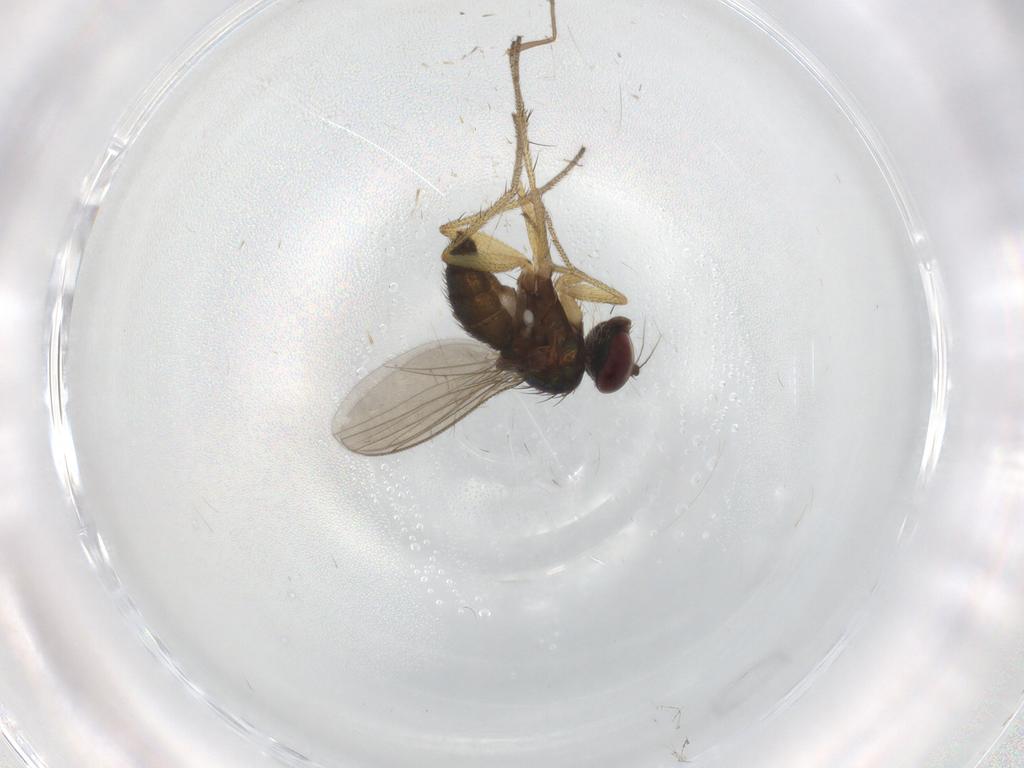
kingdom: Animalia
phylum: Arthropoda
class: Insecta
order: Diptera
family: Chironomidae
